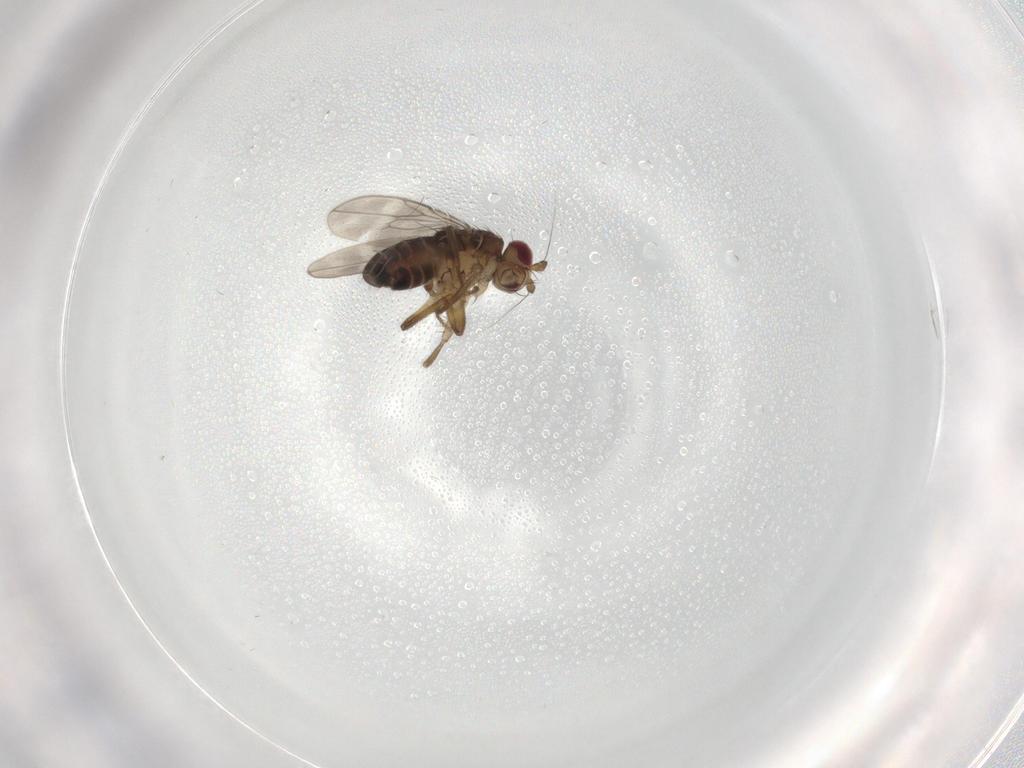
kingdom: Animalia
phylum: Arthropoda
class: Insecta
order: Diptera
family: Sphaeroceridae
